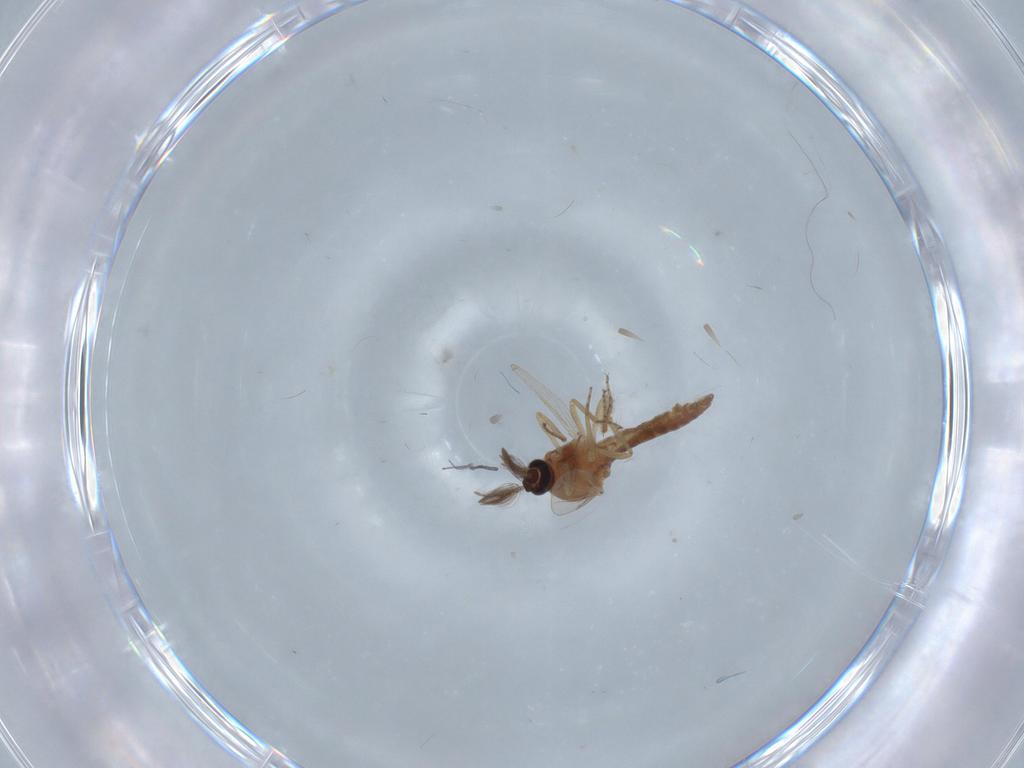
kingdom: Animalia
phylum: Arthropoda
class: Insecta
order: Diptera
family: Ceratopogonidae
